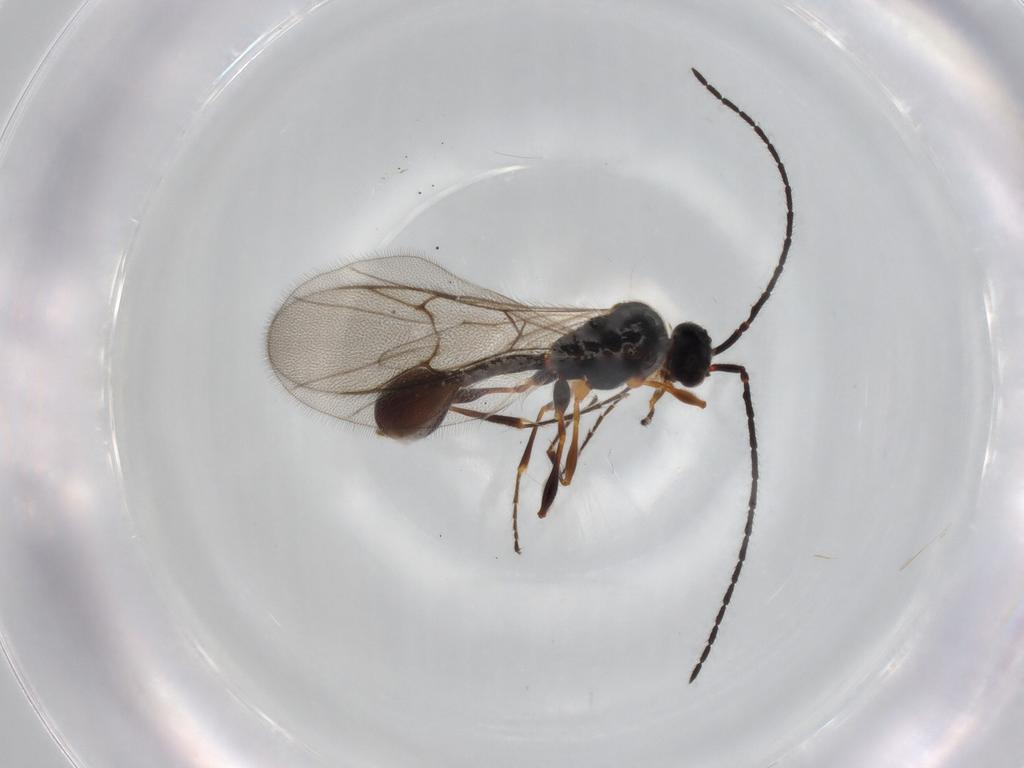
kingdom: Animalia
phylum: Arthropoda
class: Insecta
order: Hymenoptera
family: Diapriidae
